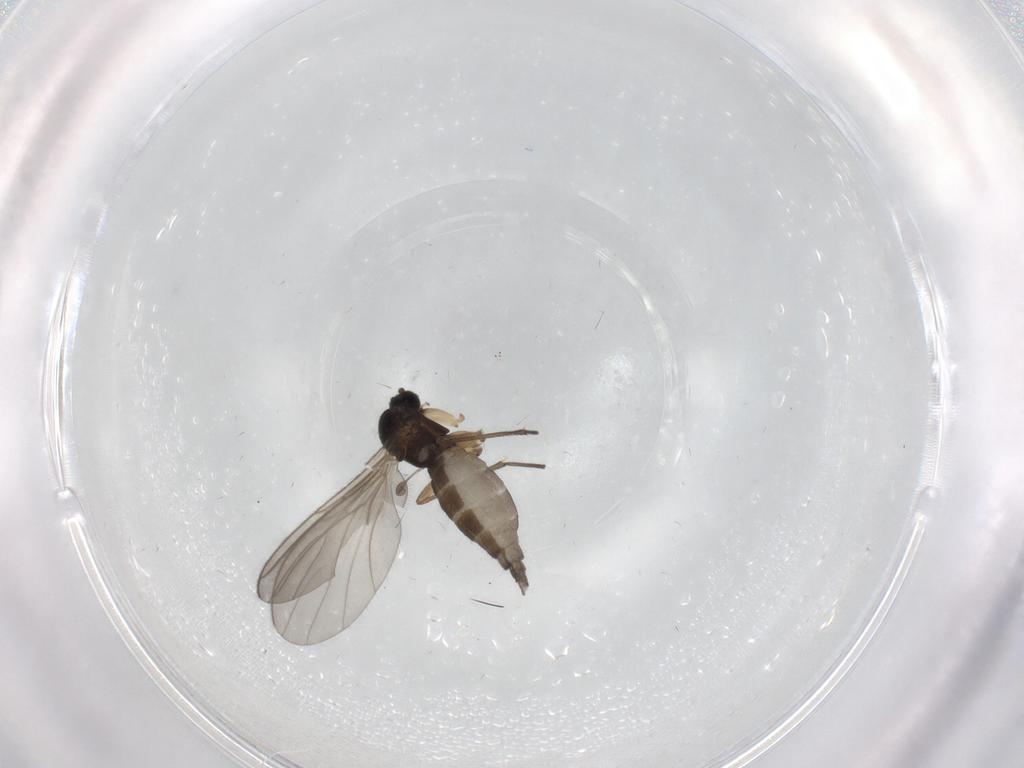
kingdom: Animalia
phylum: Arthropoda
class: Insecta
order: Diptera
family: Sciaridae
